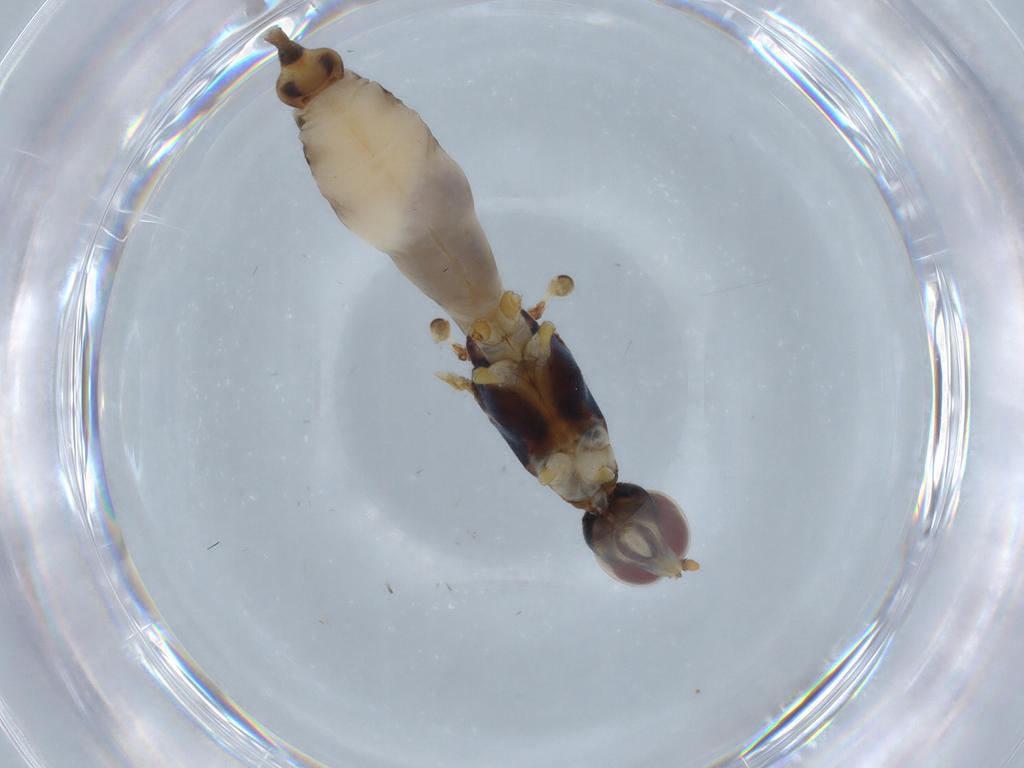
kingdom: Animalia
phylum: Arthropoda
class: Insecta
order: Diptera
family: Micropezidae
